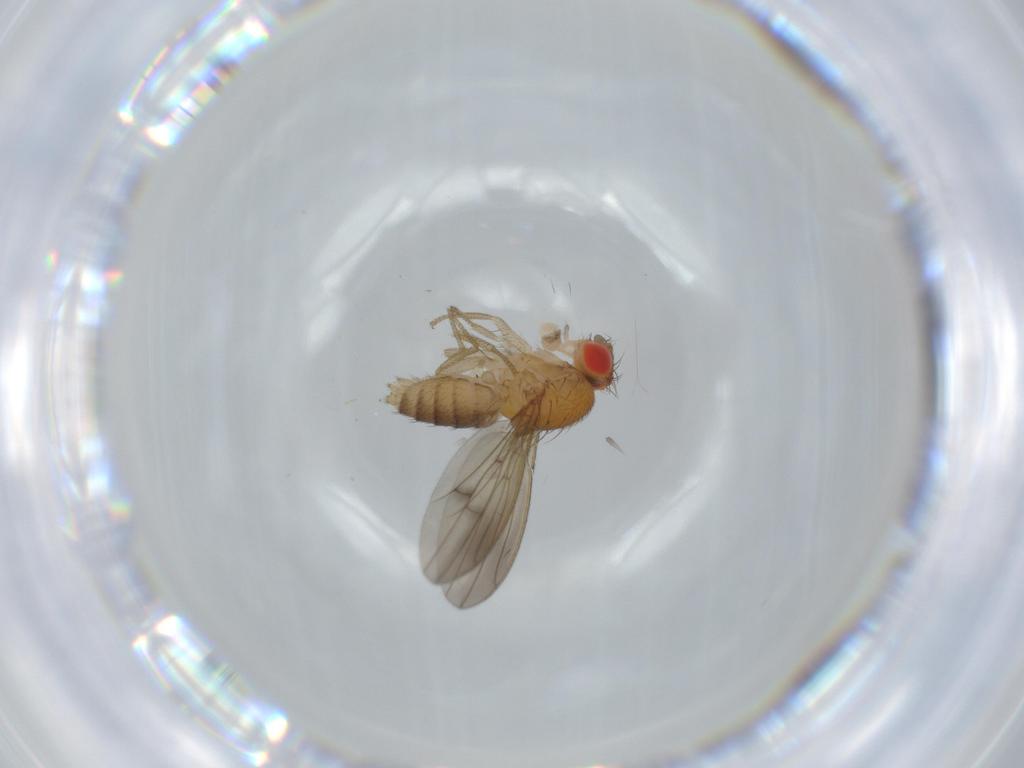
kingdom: Animalia
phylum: Arthropoda
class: Insecta
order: Diptera
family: Drosophilidae
